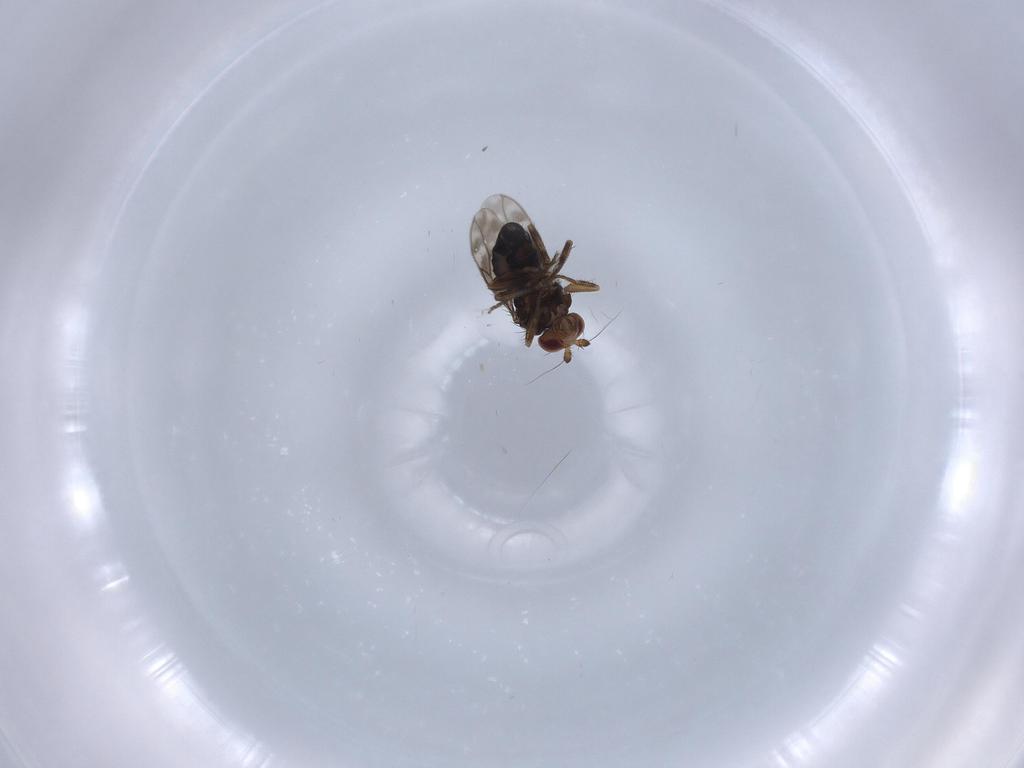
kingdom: Animalia
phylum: Arthropoda
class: Insecta
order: Diptera
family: Sphaeroceridae
